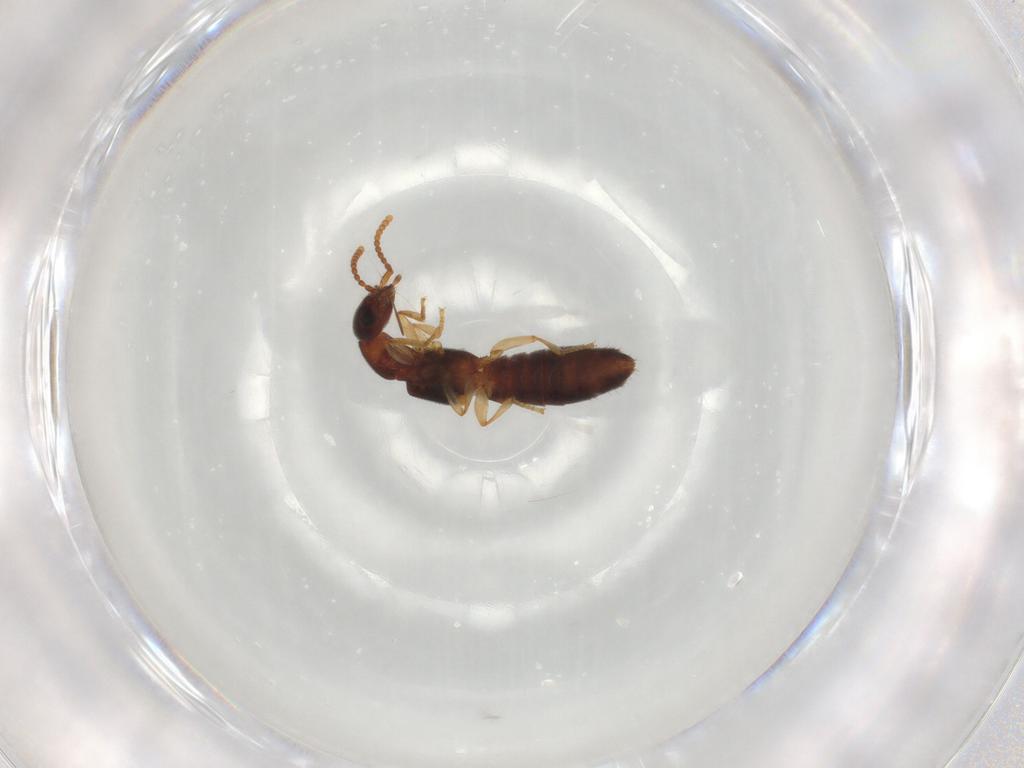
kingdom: Animalia
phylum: Arthropoda
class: Insecta
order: Coleoptera
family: Staphylinidae
